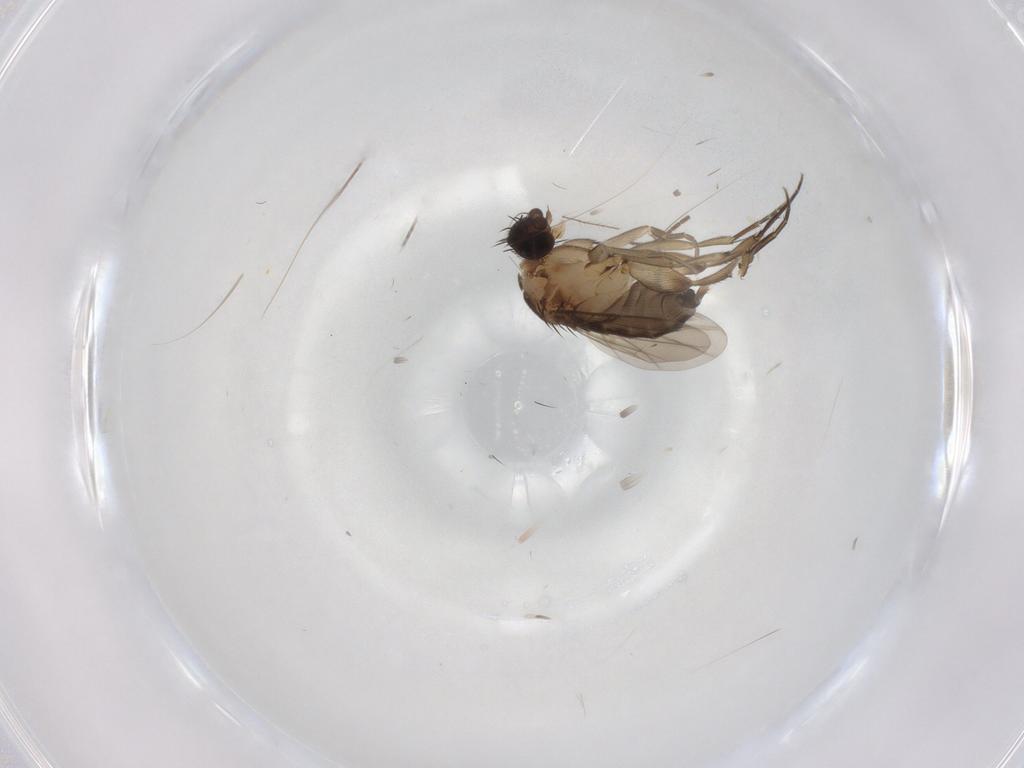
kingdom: Animalia
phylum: Arthropoda
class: Insecta
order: Diptera
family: Phoridae
